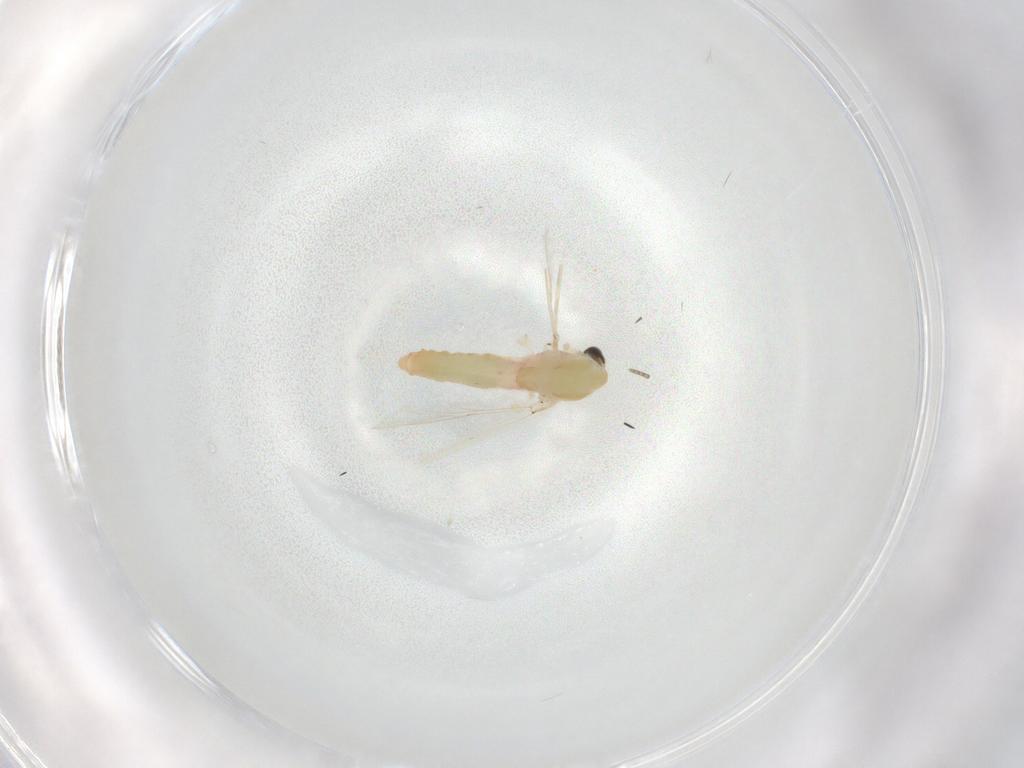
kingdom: Animalia
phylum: Arthropoda
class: Insecta
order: Diptera
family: Chironomidae
